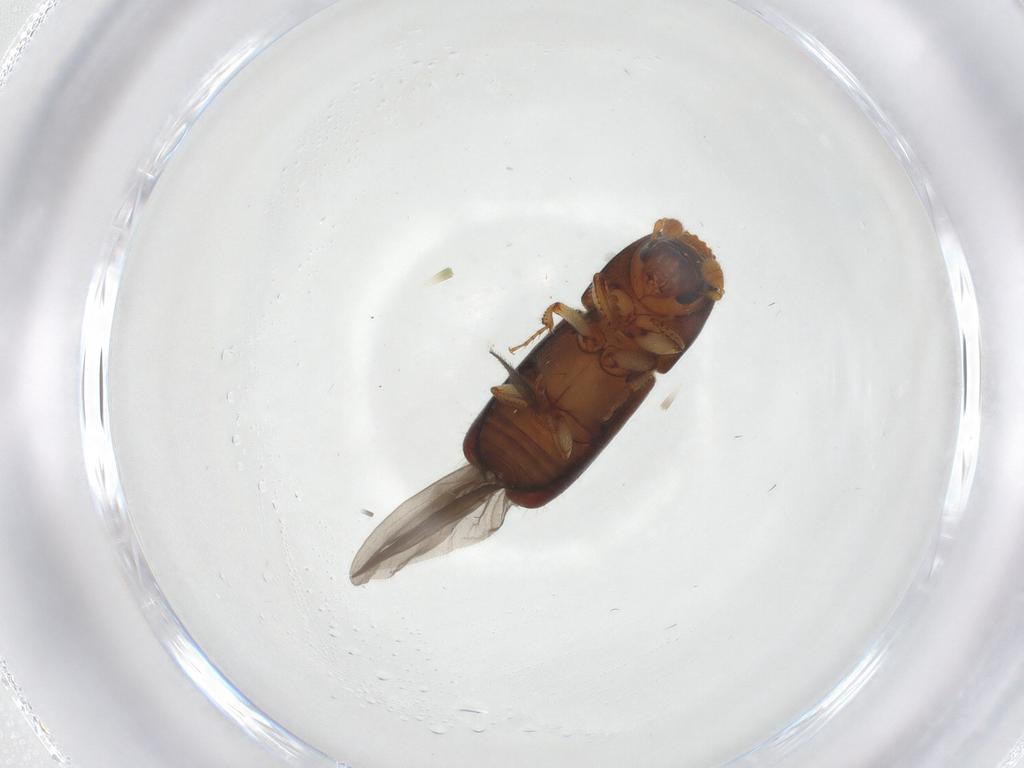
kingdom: Animalia
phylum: Arthropoda
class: Insecta
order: Coleoptera
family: Curculionidae
